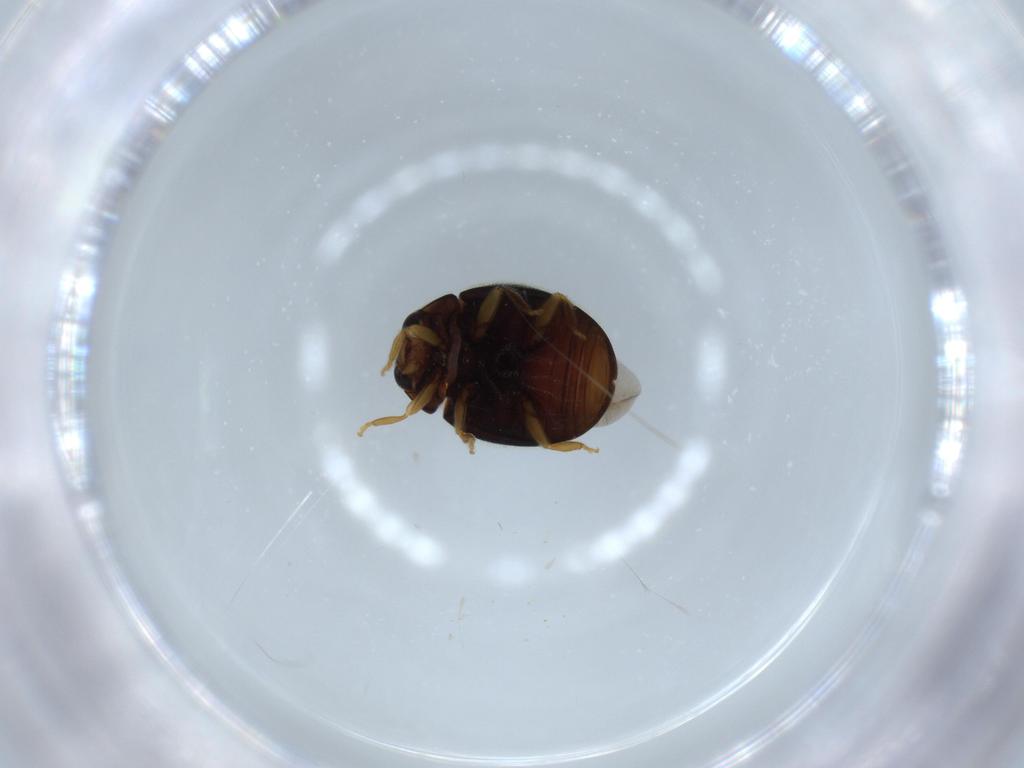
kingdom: Animalia
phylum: Arthropoda
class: Insecta
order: Coleoptera
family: Coccinellidae
